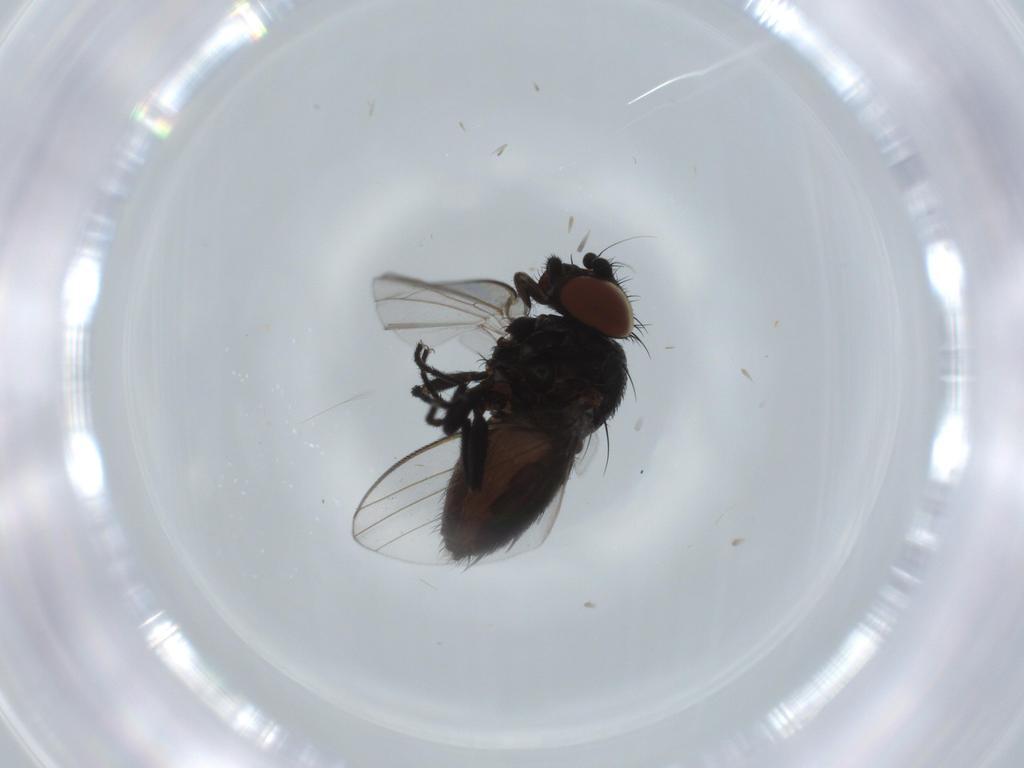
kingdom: Animalia
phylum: Arthropoda
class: Insecta
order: Diptera
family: Milichiidae
